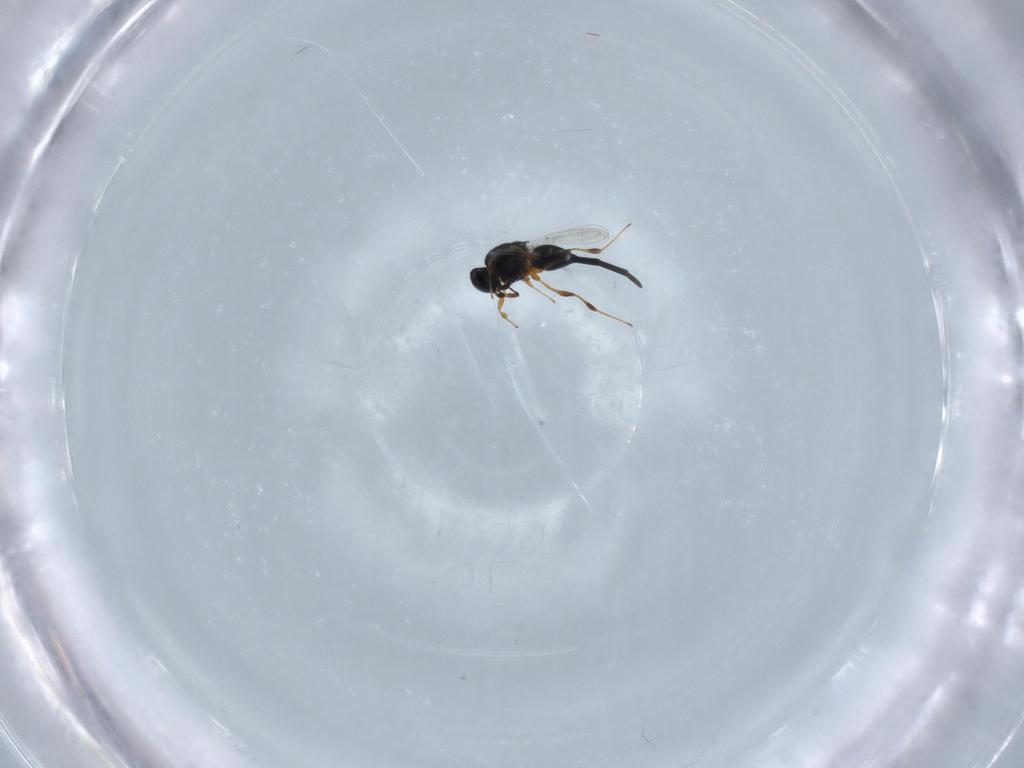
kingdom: Animalia
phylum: Arthropoda
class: Insecta
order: Hymenoptera
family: Platygastridae
